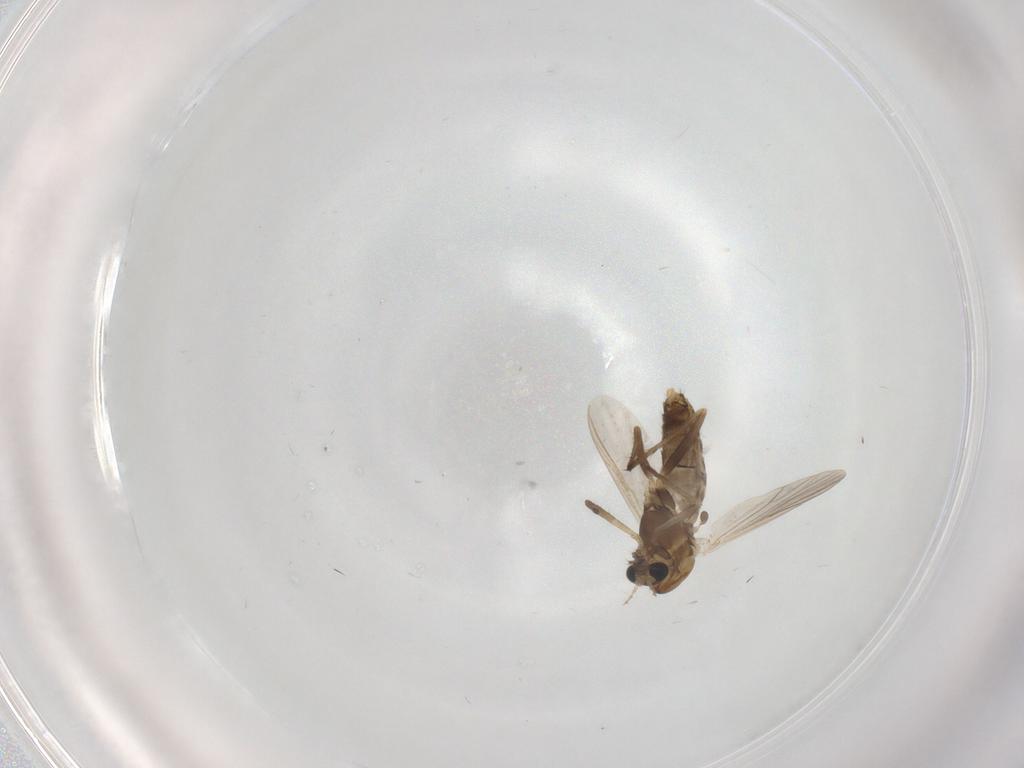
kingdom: Animalia
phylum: Arthropoda
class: Insecta
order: Diptera
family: Chironomidae
